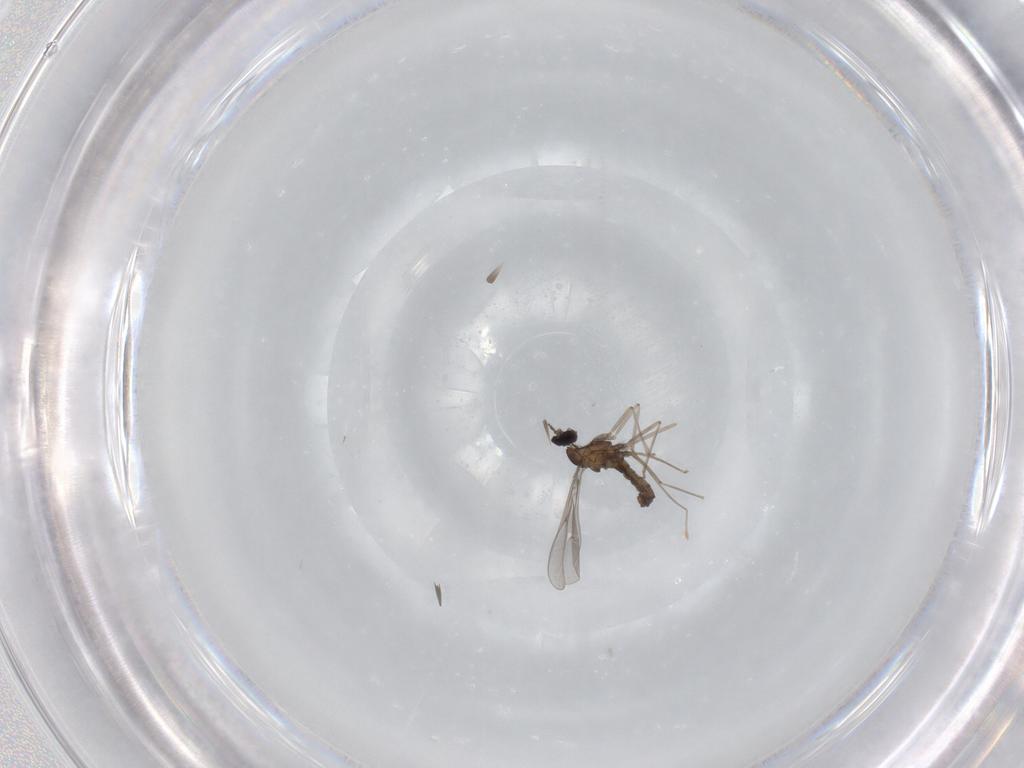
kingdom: Animalia
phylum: Arthropoda
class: Insecta
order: Diptera
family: Cecidomyiidae
